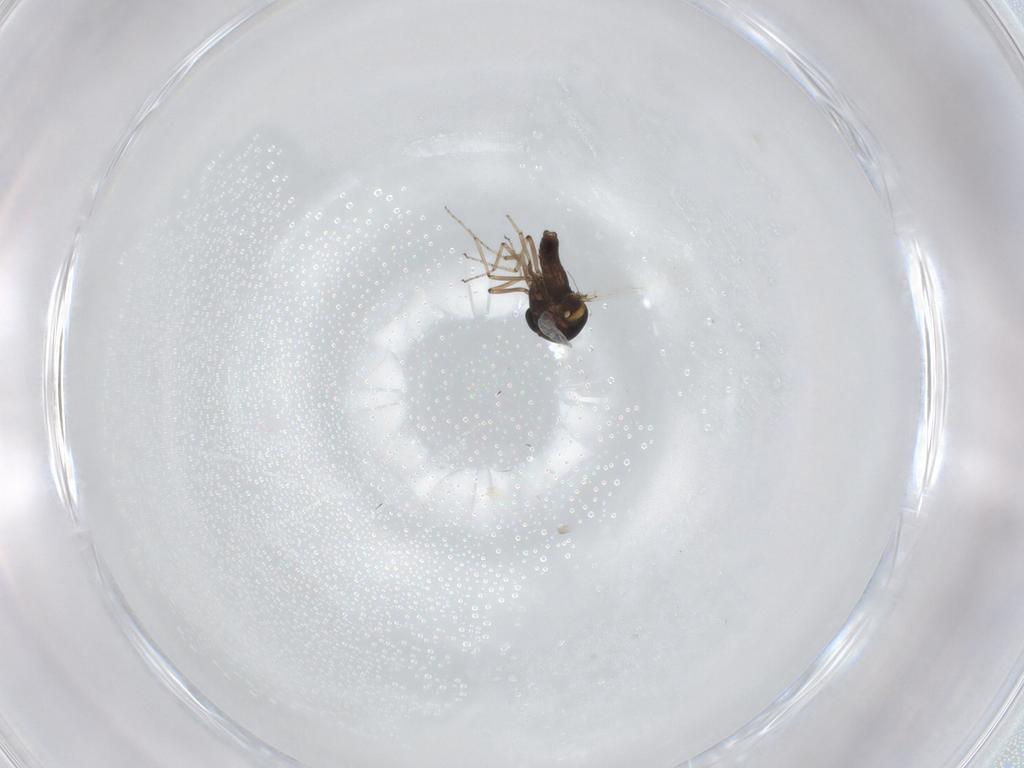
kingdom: Animalia
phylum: Arthropoda
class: Insecta
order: Diptera
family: Ceratopogonidae
